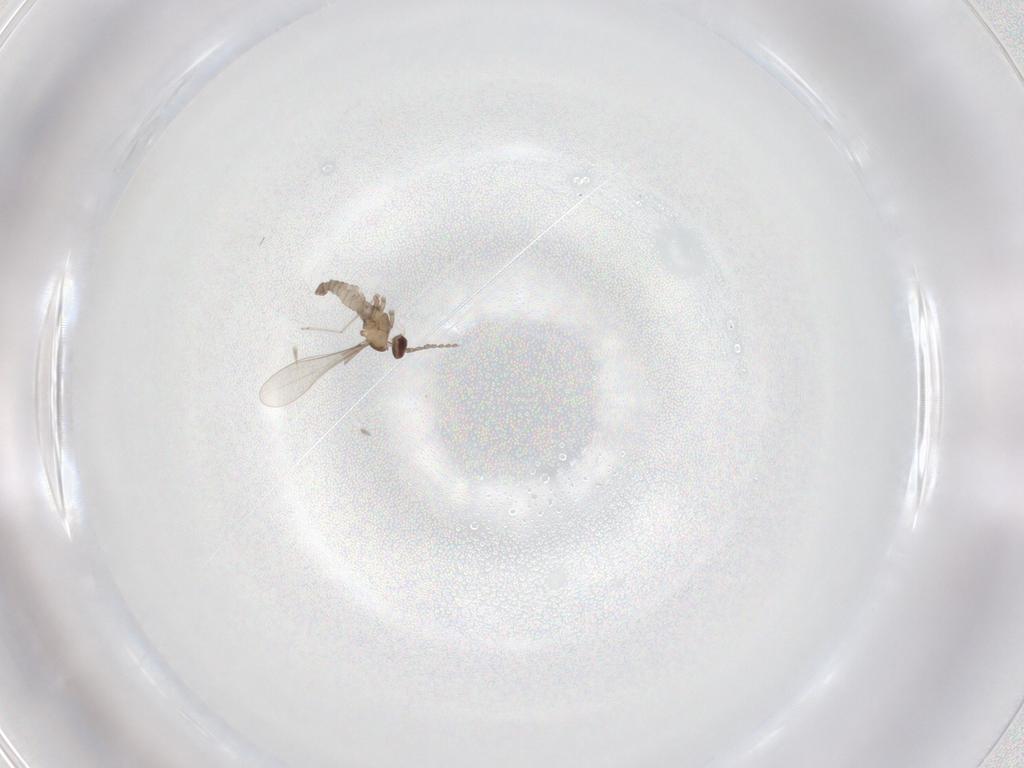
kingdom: Animalia
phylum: Arthropoda
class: Insecta
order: Diptera
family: Cecidomyiidae
